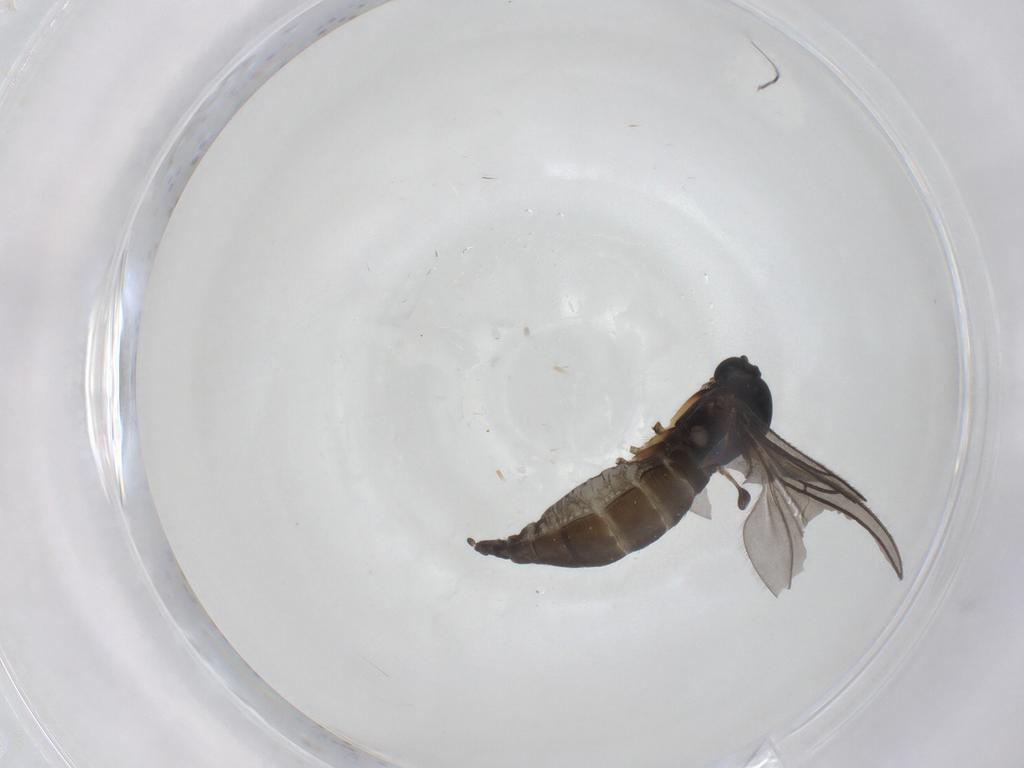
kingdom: Animalia
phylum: Arthropoda
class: Insecta
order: Diptera
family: Sciaridae
